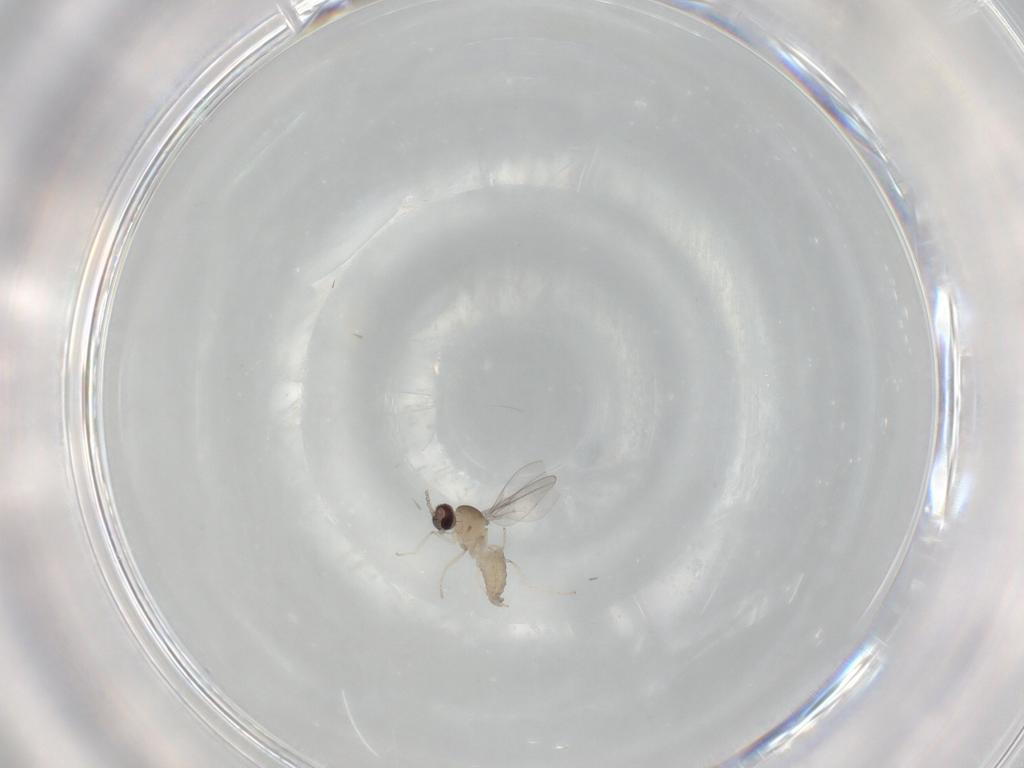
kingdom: Animalia
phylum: Arthropoda
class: Insecta
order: Diptera
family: Cecidomyiidae
